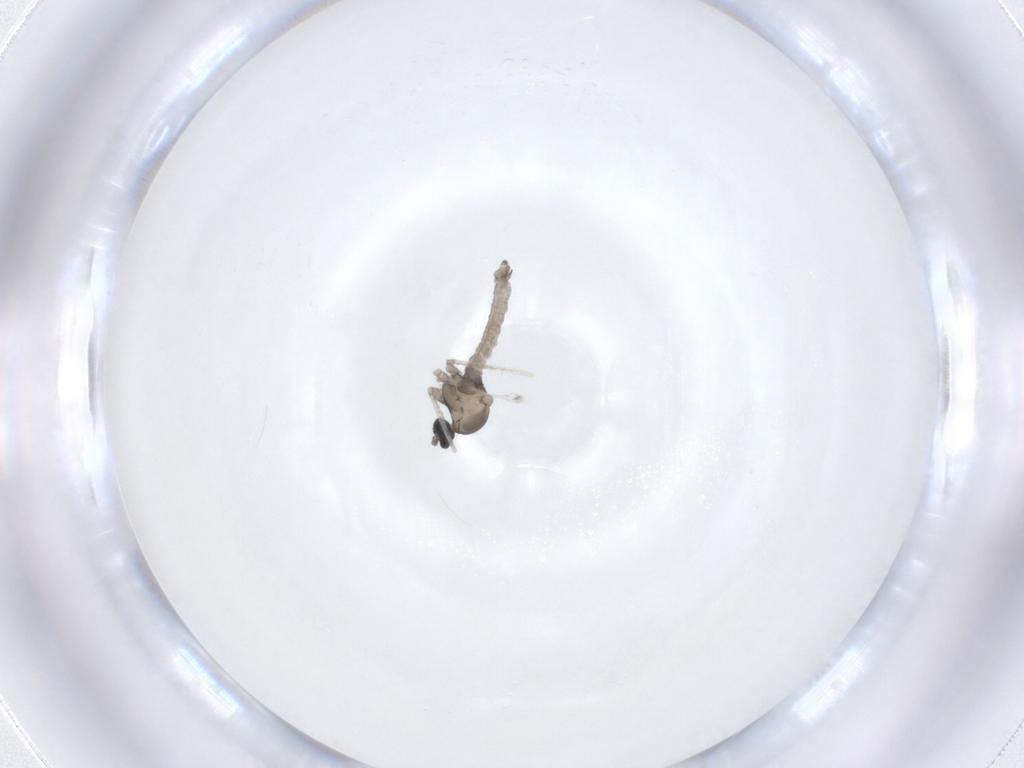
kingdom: Animalia
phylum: Arthropoda
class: Insecta
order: Diptera
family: Cecidomyiidae
